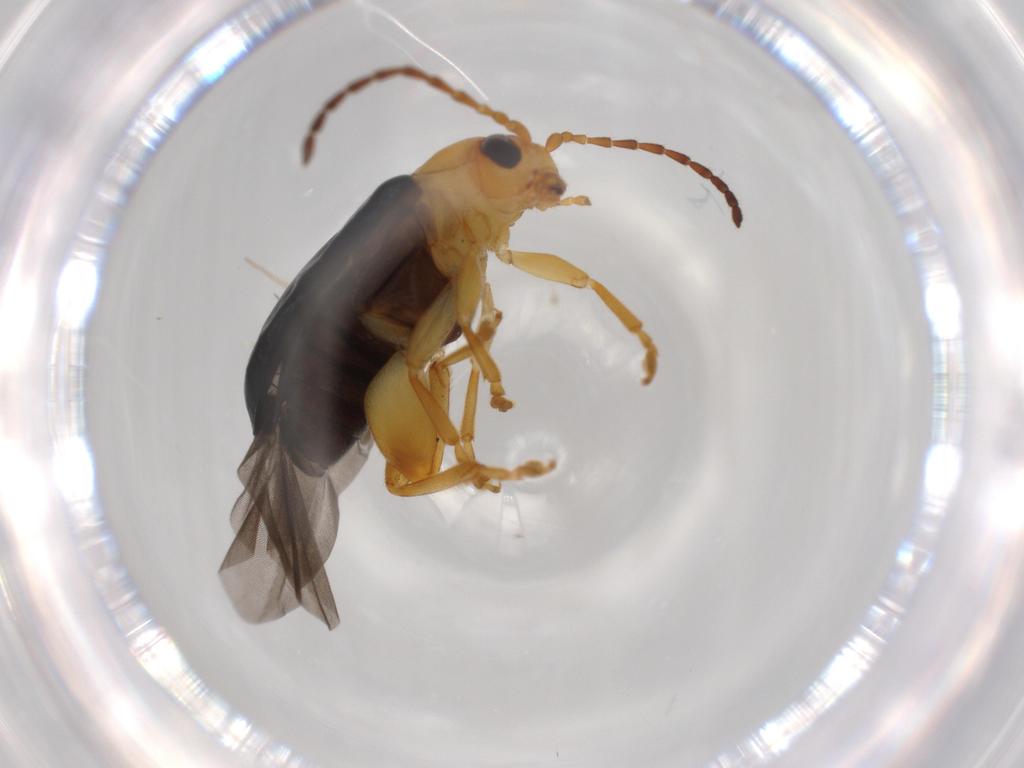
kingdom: Animalia
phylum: Arthropoda
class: Insecta
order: Coleoptera
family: Chrysomelidae
